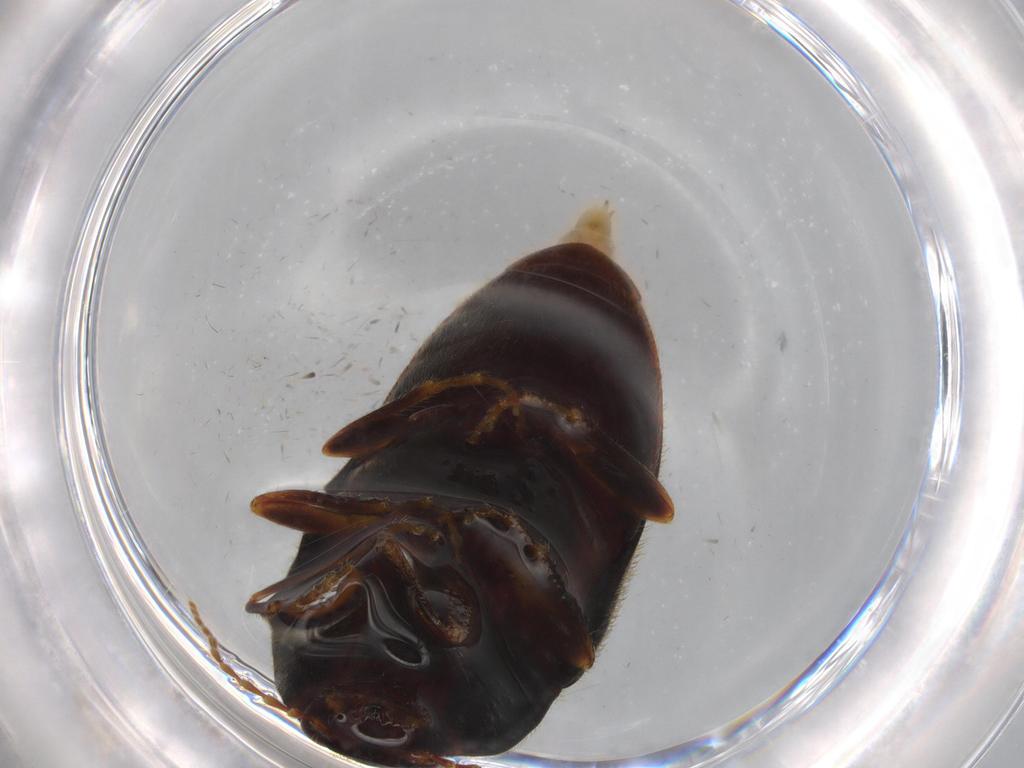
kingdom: Animalia
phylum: Arthropoda
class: Insecta
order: Coleoptera
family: Elateridae
